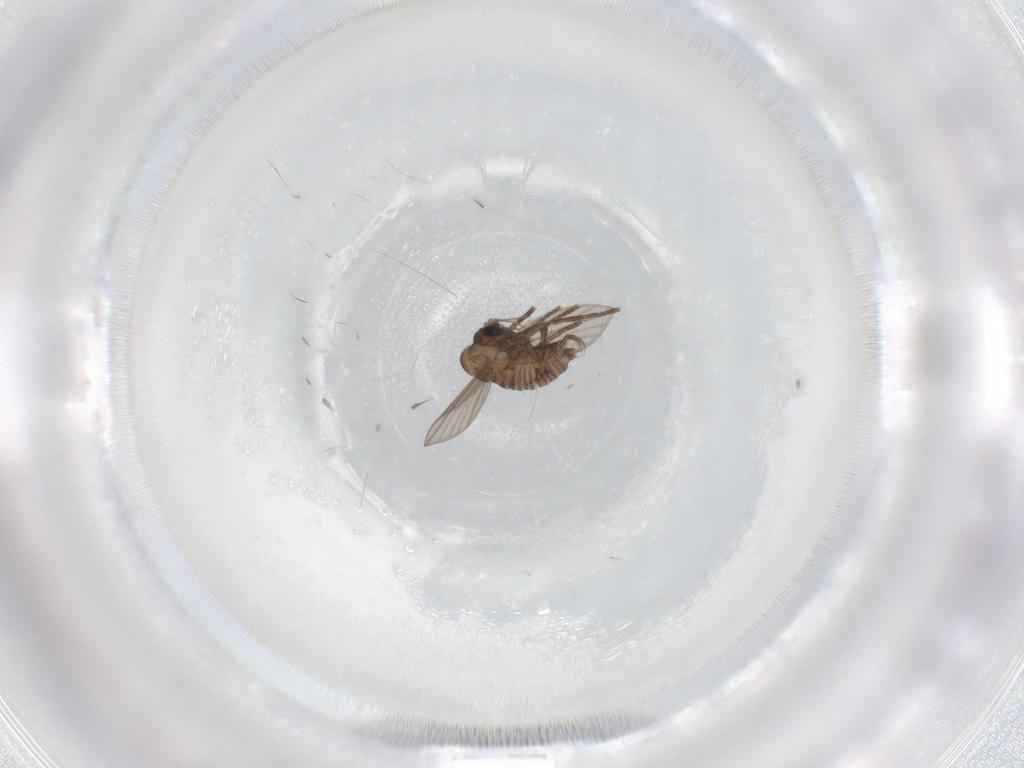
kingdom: Animalia
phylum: Arthropoda
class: Insecta
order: Diptera
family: Psychodidae
